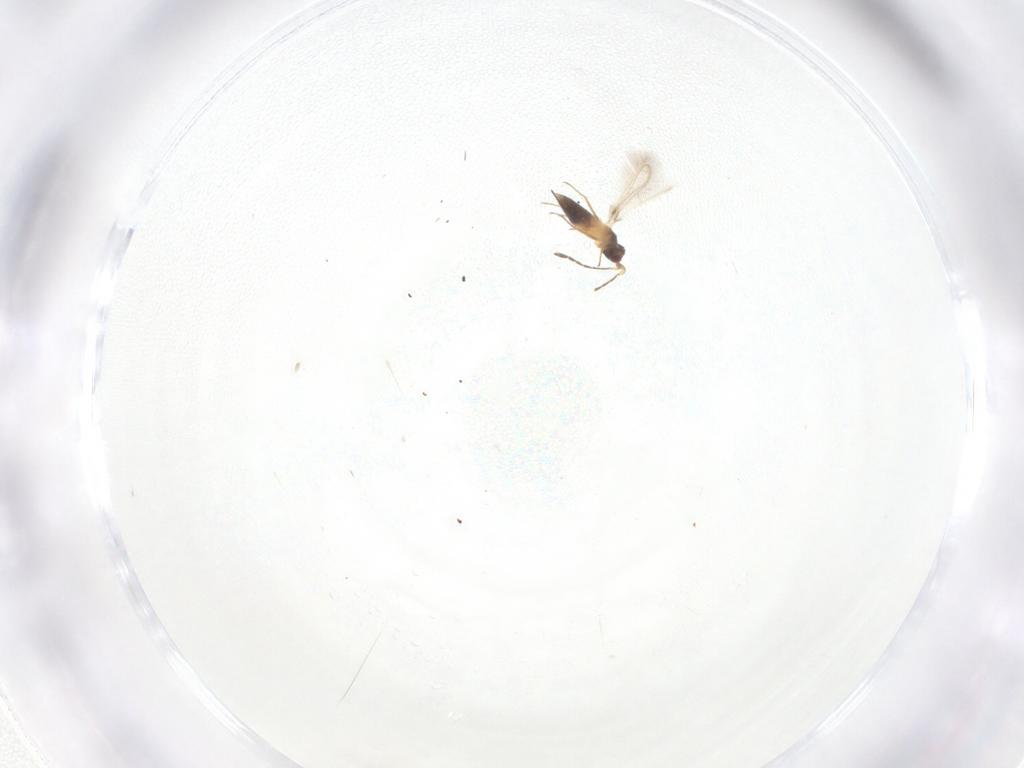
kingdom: Animalia
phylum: Arthropoda
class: Insecta
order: Hymenoptera
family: Pteromalidae
